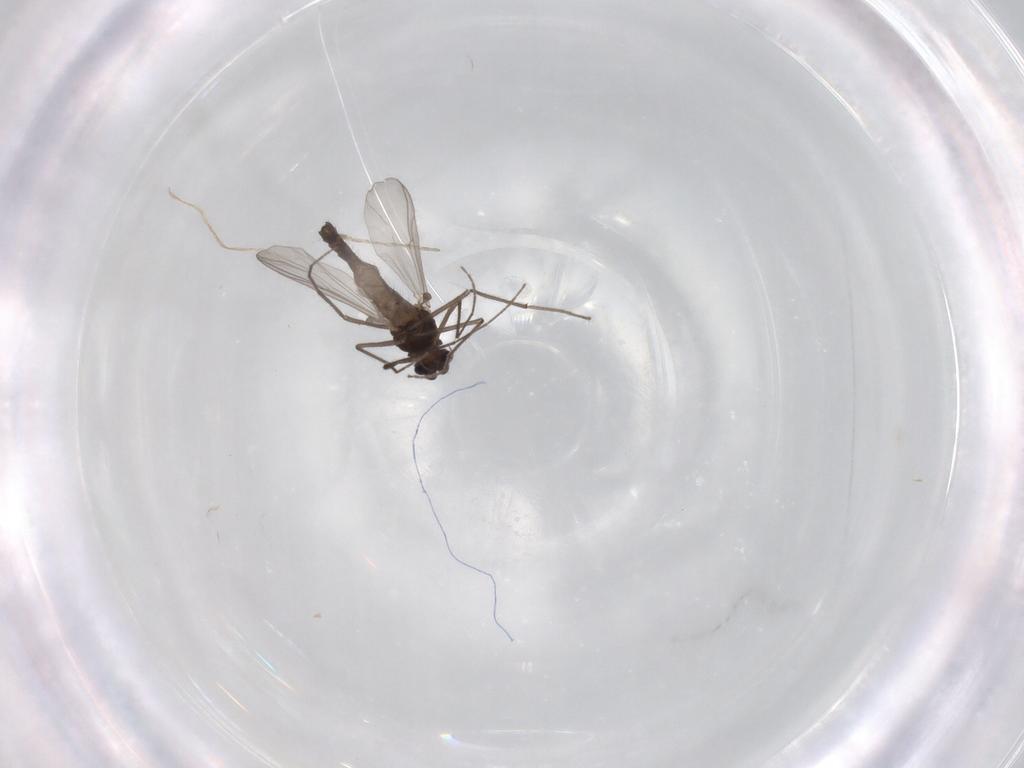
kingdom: Animalia
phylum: Arthropoda
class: Insecta
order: Diptera
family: Chironomidae
